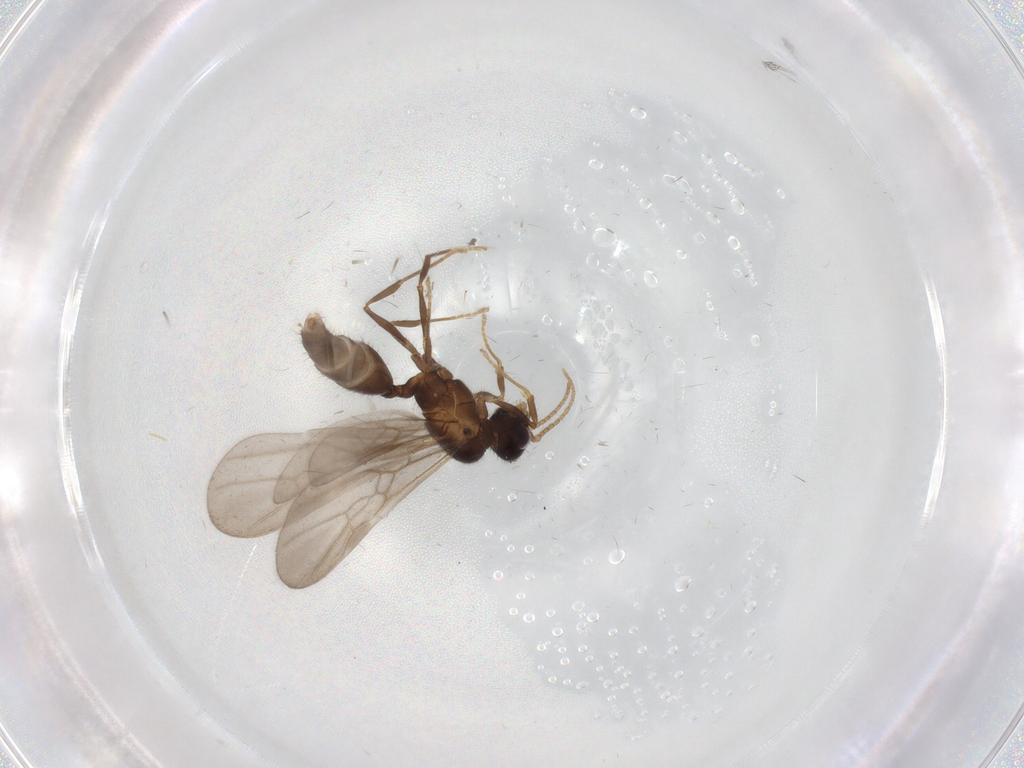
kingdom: Animalia
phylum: Arthropoda
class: Insecta
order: Hymenoptera
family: Formicidae
